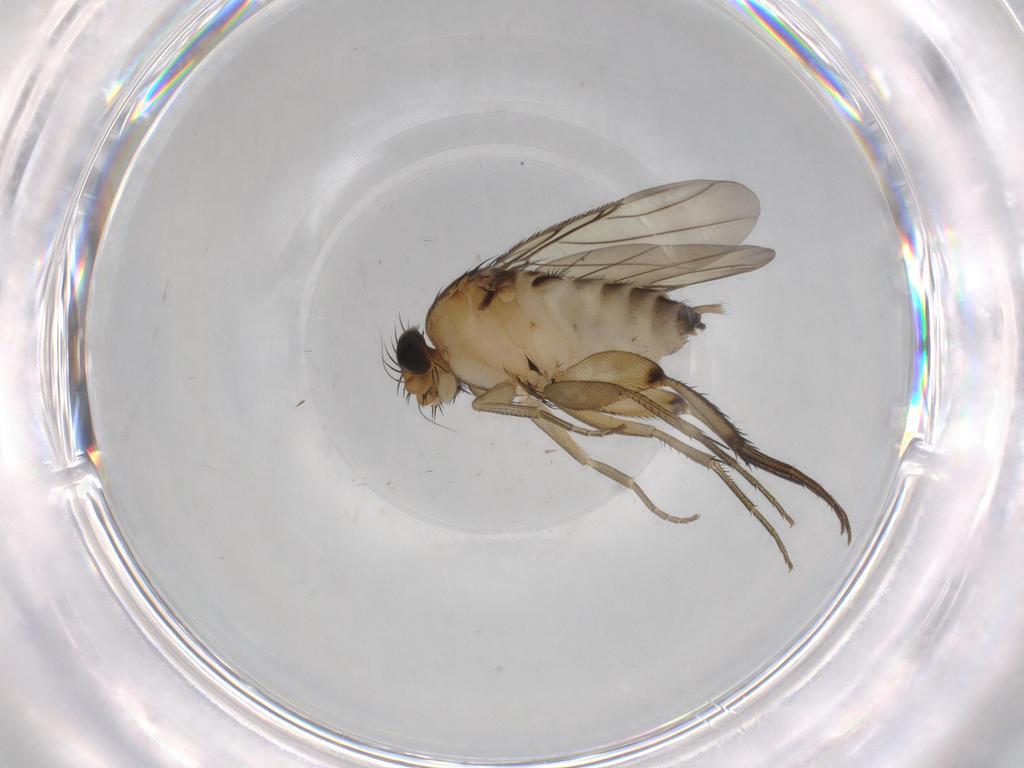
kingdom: Animalia
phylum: Arthropoda
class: Insecta
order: Diptera
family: Phoridae
